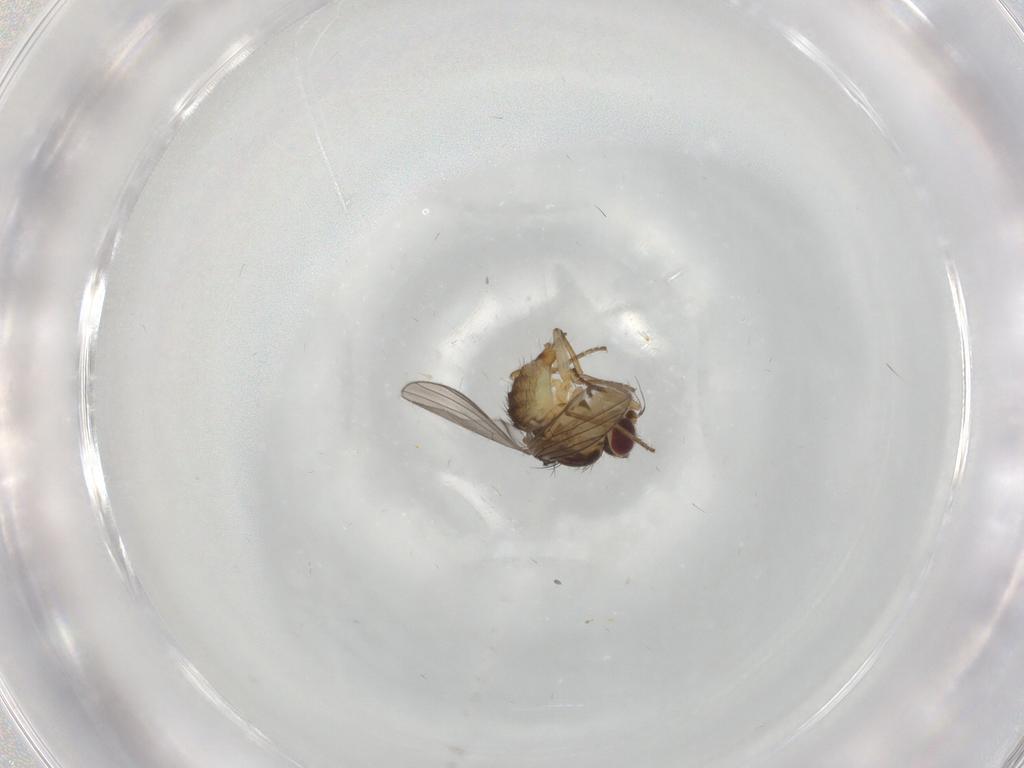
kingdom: Animalia
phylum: Arthropoda
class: Insecta
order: Diptera
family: Agromyzidae
